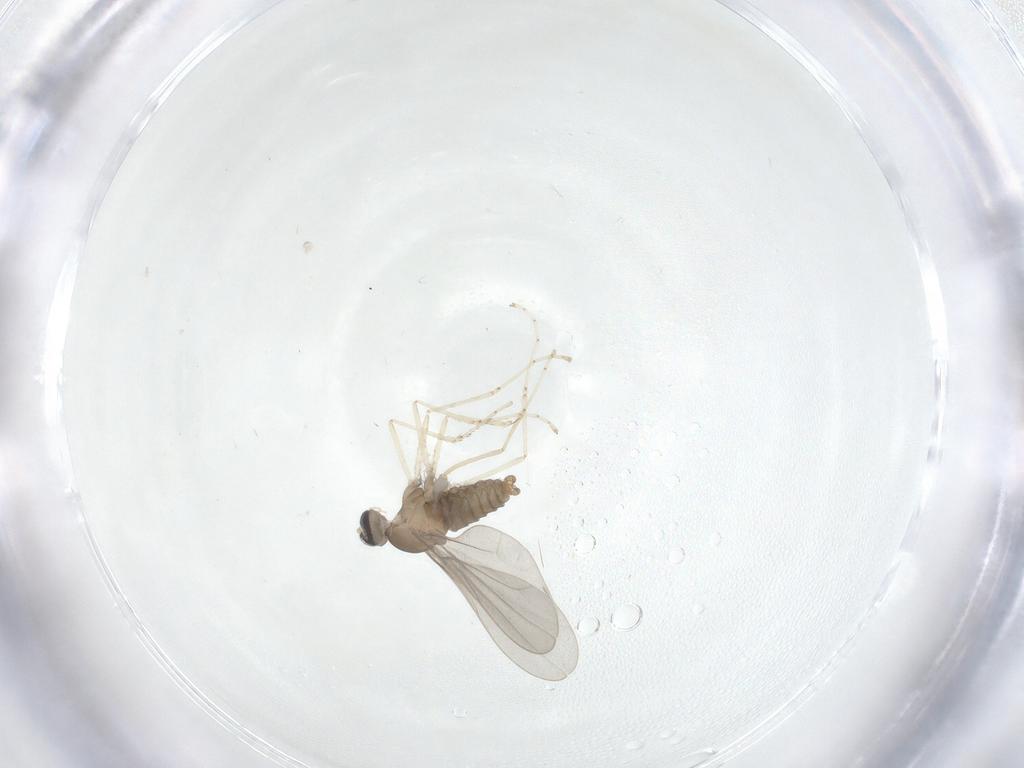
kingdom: Animalia
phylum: Arthropoda
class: Insecta
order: Diptera
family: Cecidomyiidae
